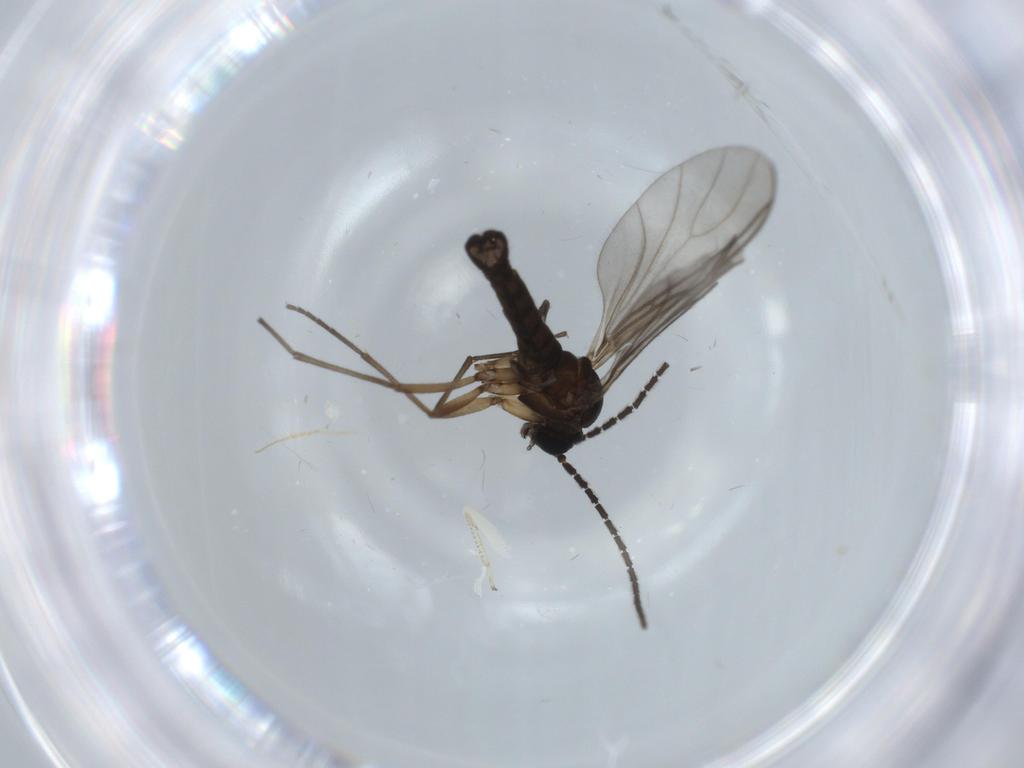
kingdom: Animalia
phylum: Arthropoda
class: Insecta
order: Diptera
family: Sciaridae
